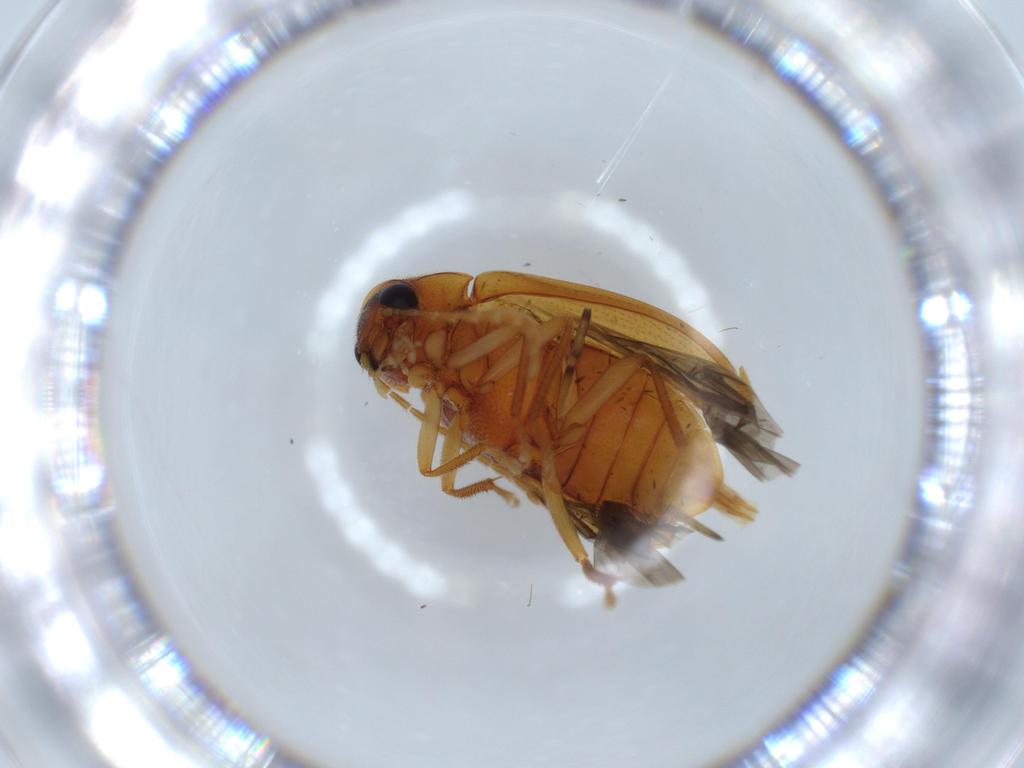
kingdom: Animalia
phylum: Arthropoda
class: Insecta
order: Coleoptera
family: Ptilodactylidae
